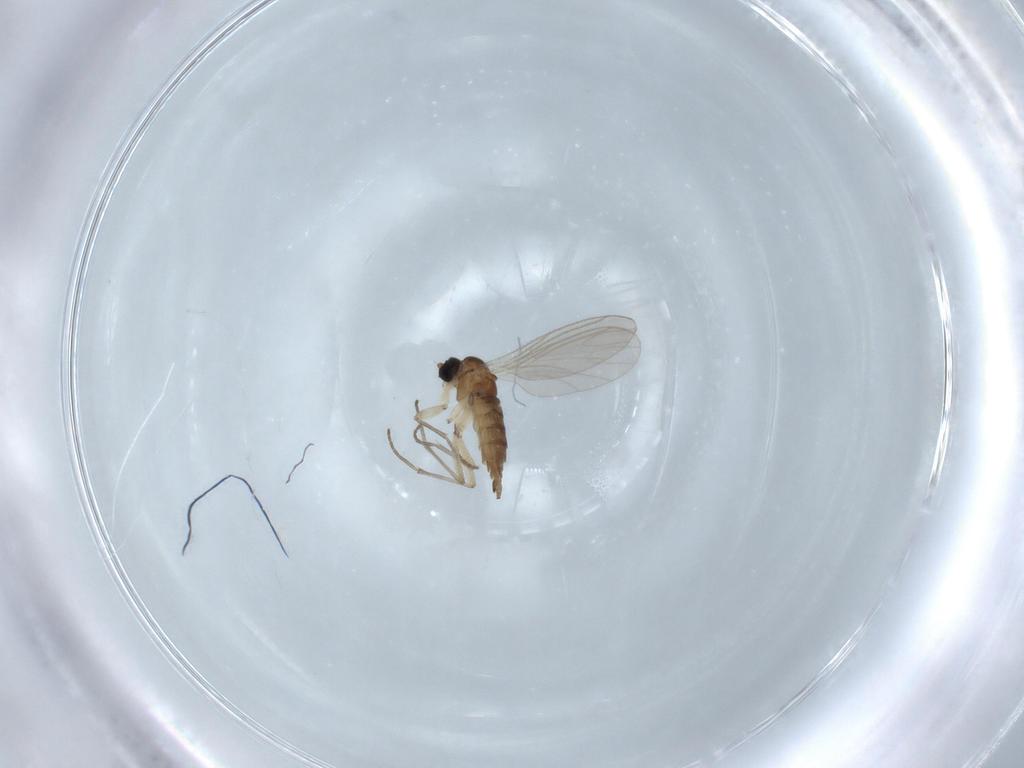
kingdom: Animalia
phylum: Arthropoda
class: Insecta
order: Diptera
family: Sciaridae
